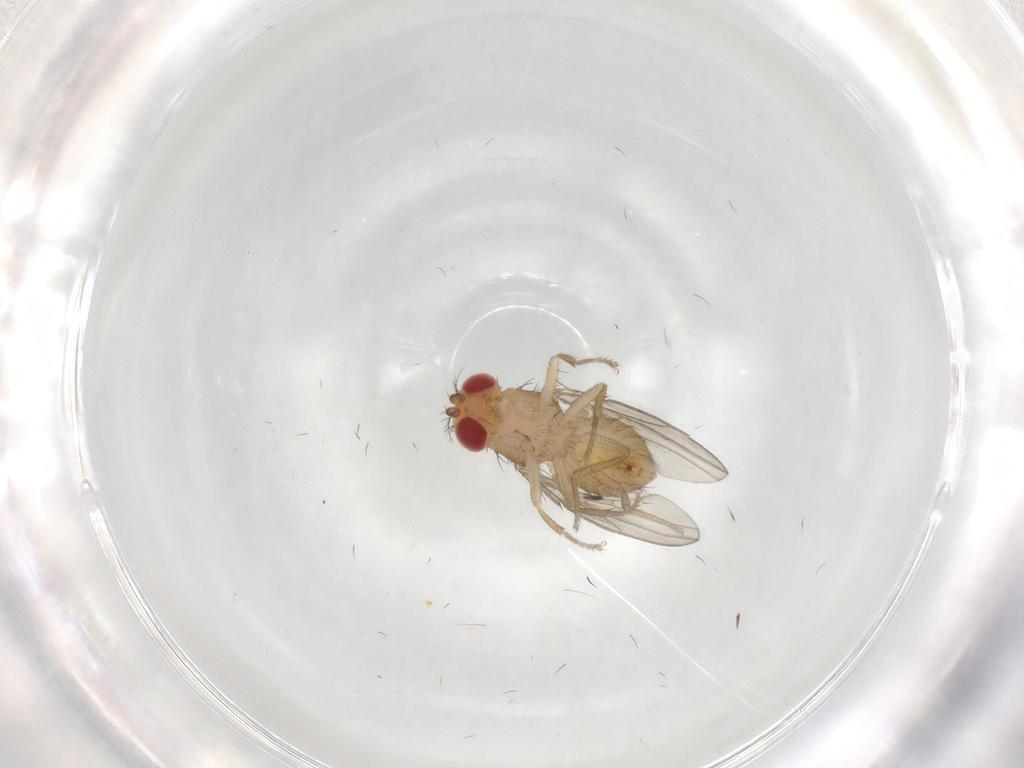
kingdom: Animalia
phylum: Arthropoda
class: Insecta
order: Diptera
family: Drosophilidae
